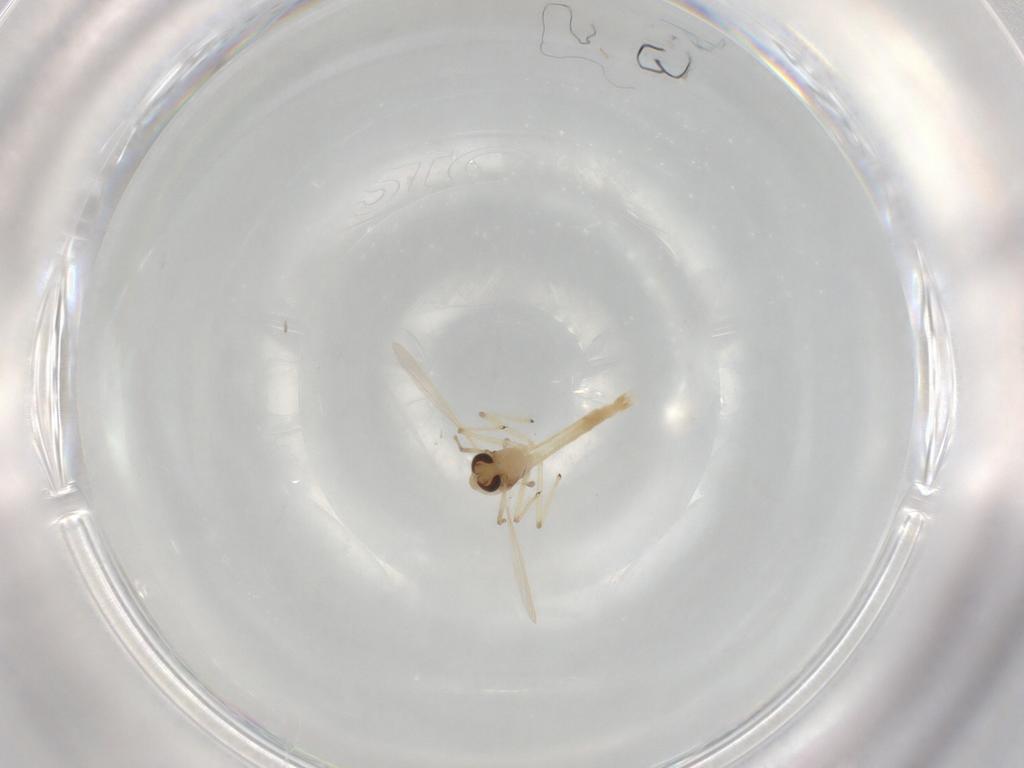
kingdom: Animalia
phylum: Arthropoda
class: Insecta
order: Diptera
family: Chironomidae
